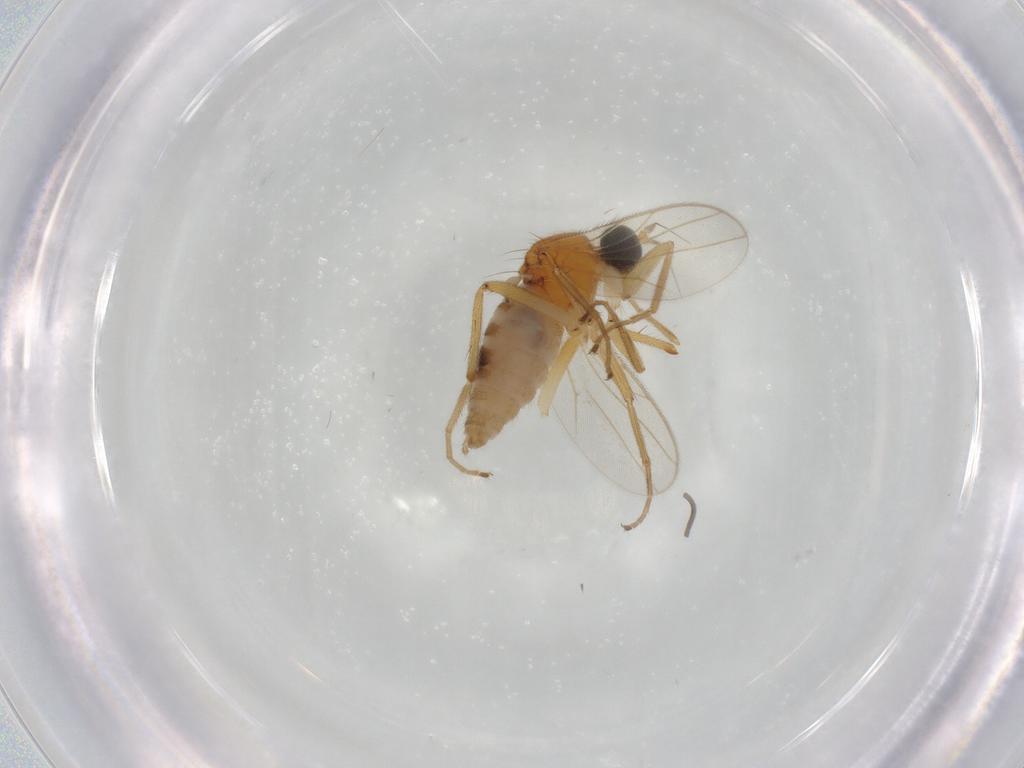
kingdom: Animalia
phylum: Arthropoda
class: Insecta
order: Diptera
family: Hybotidae
